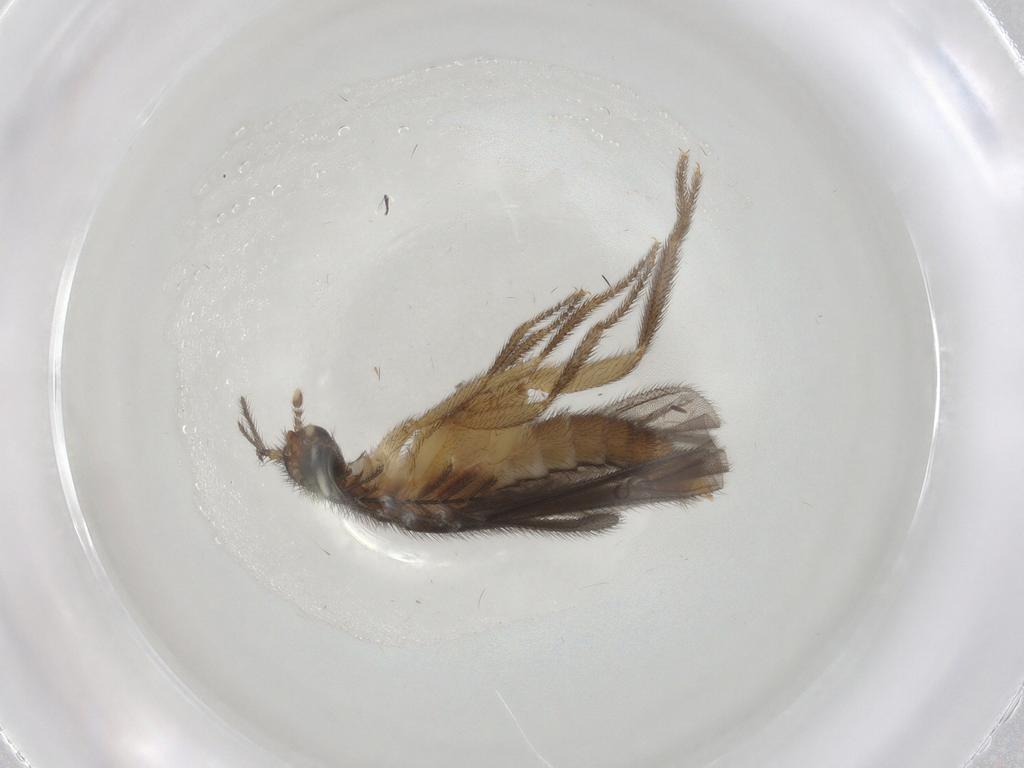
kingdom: Animalia
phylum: Arthropoda
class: Insecta
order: Diptera
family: Cecidomyiidae
